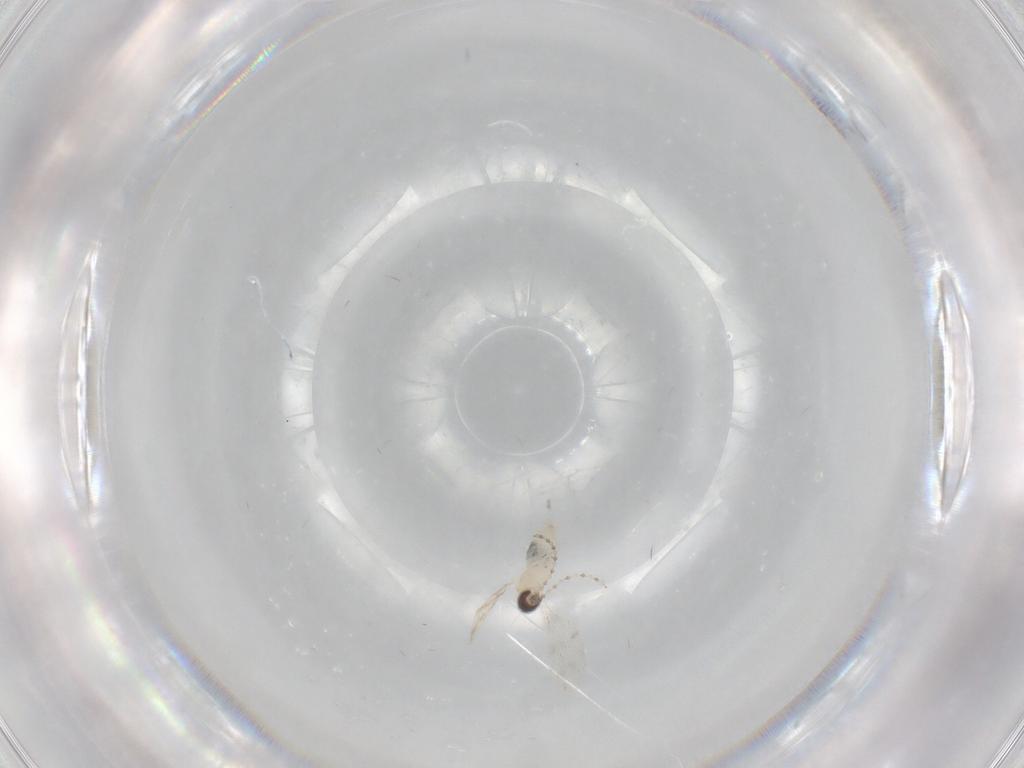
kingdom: Animalia
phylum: Arthropoda
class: Insecta
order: Diptera
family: Cecidomyiidae
